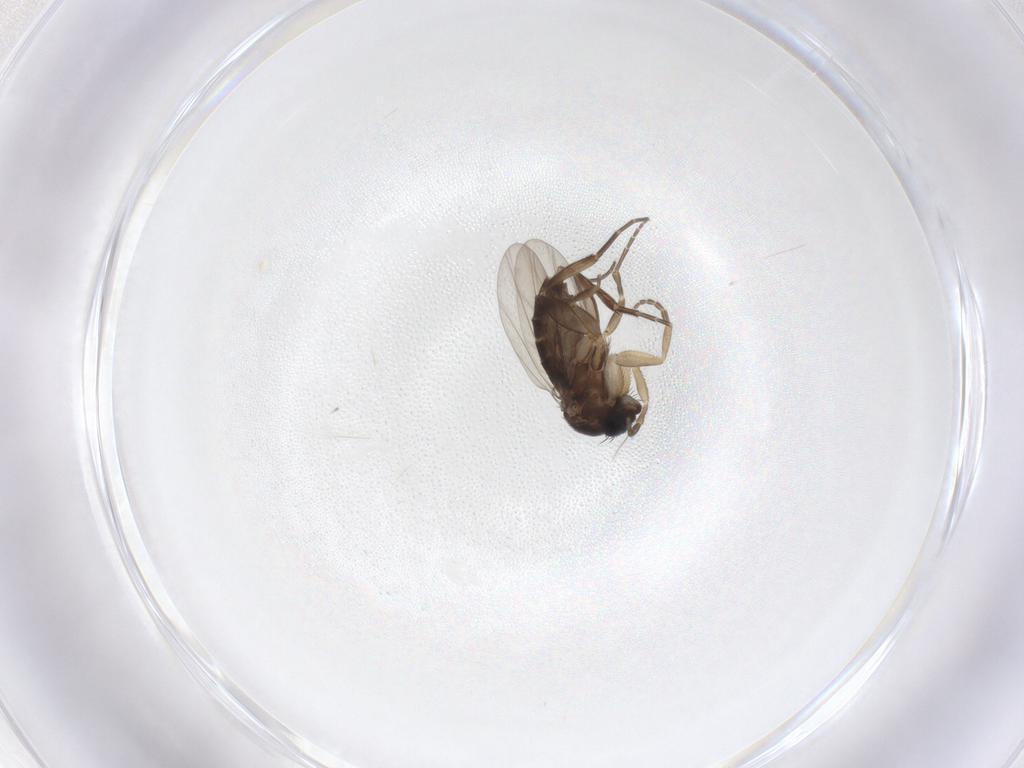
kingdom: Animalia
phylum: Arthropoda
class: Insecta
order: Diptera
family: Phoridae
